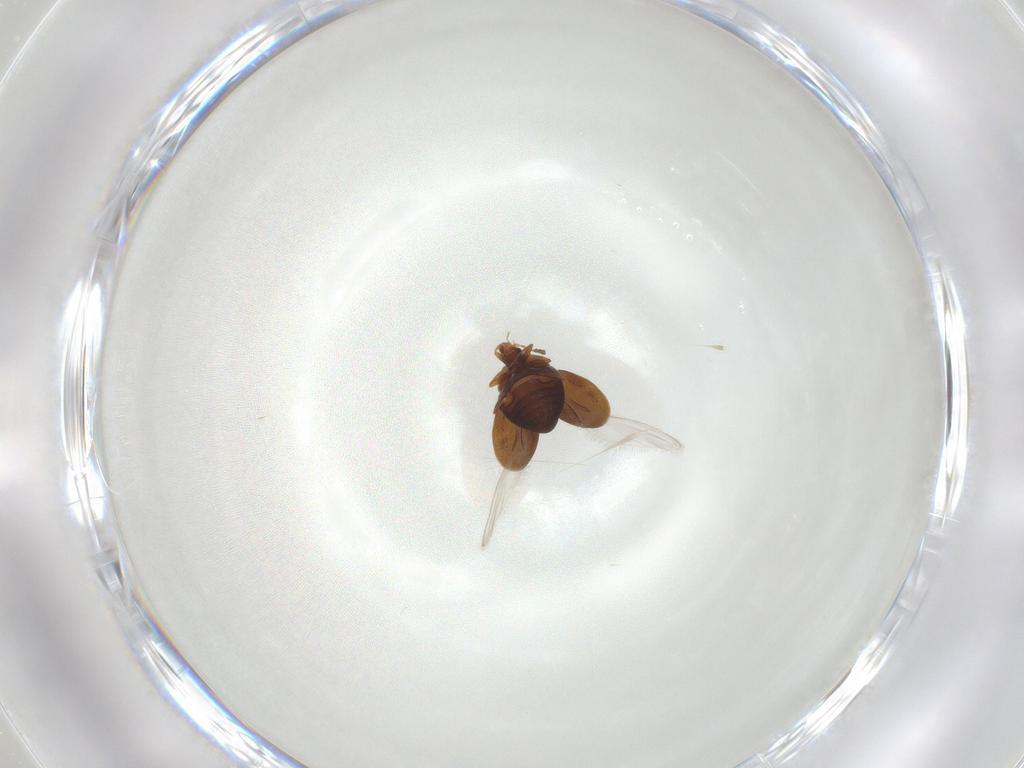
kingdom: Animalia
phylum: Arthropoda
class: Insecta
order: Coleoptera
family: Corylophidae
